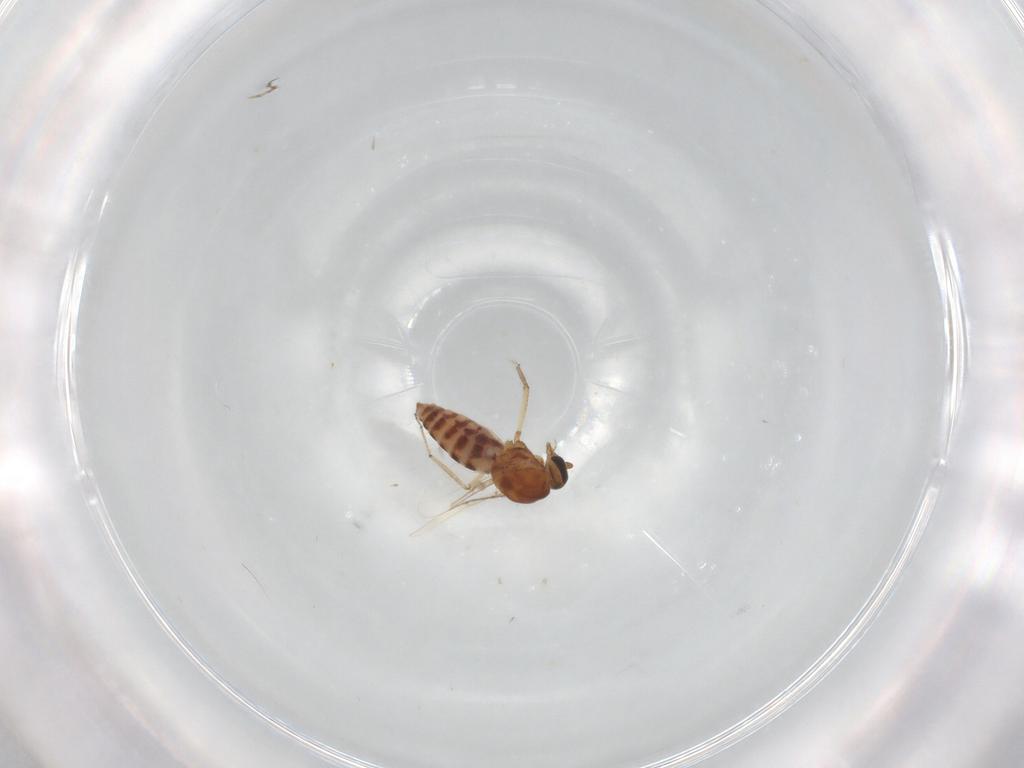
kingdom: Animalia
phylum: Arthropoda
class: Insecta
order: Diptera
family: Ceratopogonidae
